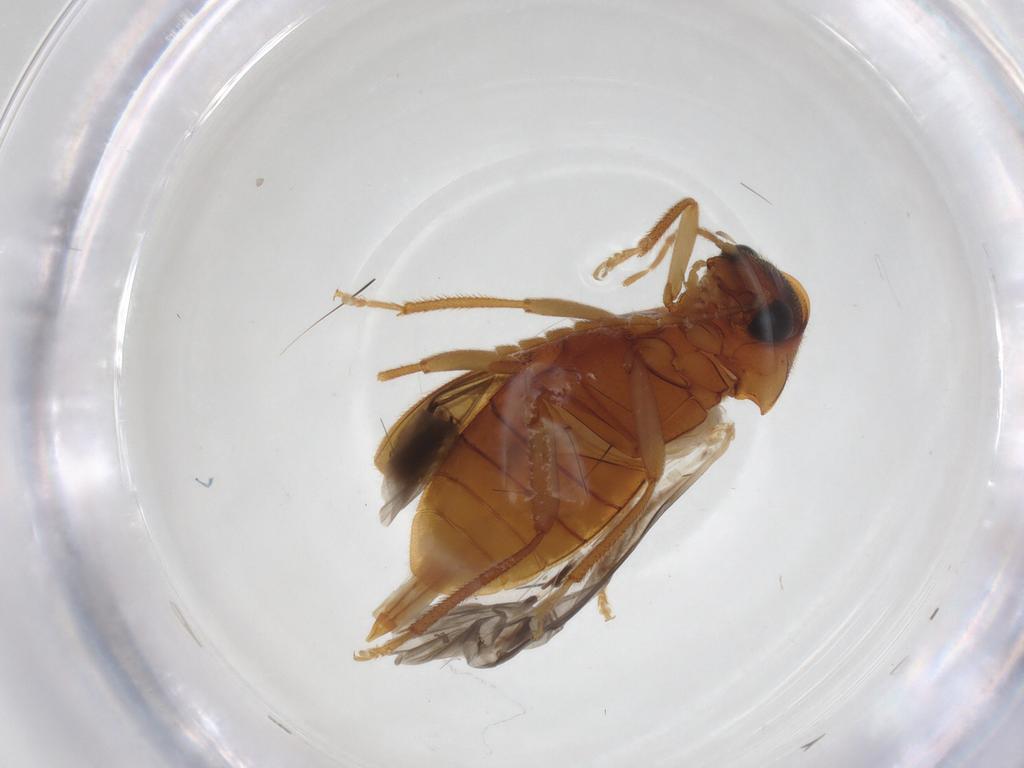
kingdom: Animalia
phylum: Arthropoda
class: Insecta
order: Coleoptera
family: Ptilodactylidae
